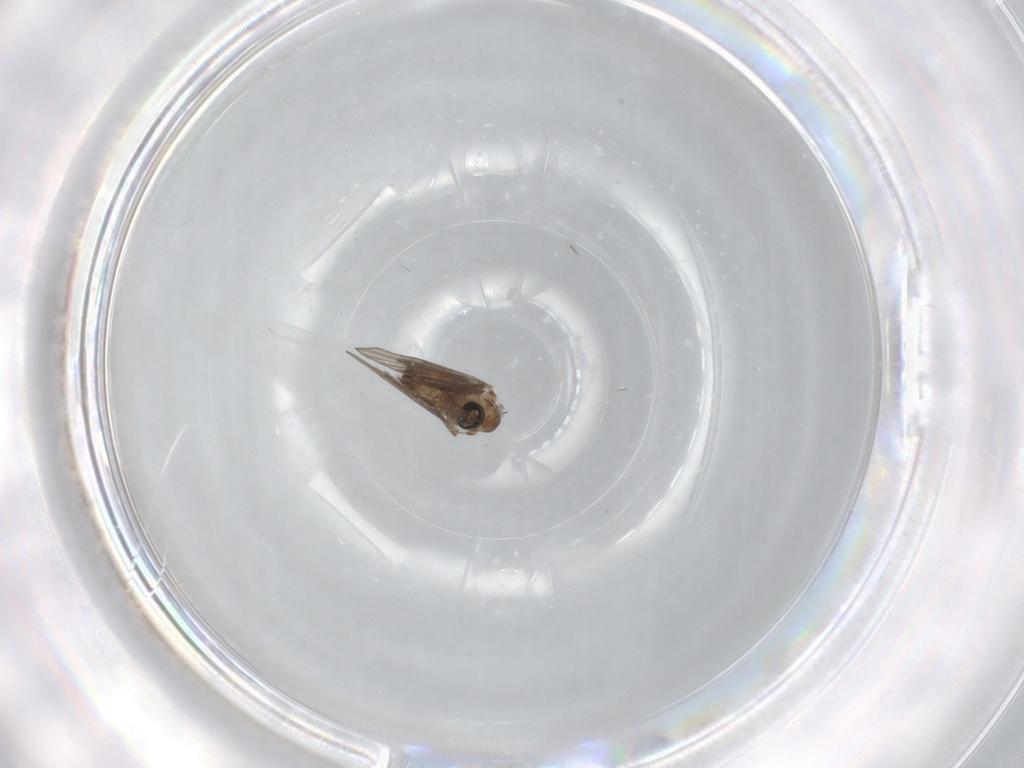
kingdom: Animalia
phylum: Arthropoda
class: Insecta
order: Diptera
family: Psychodidae
